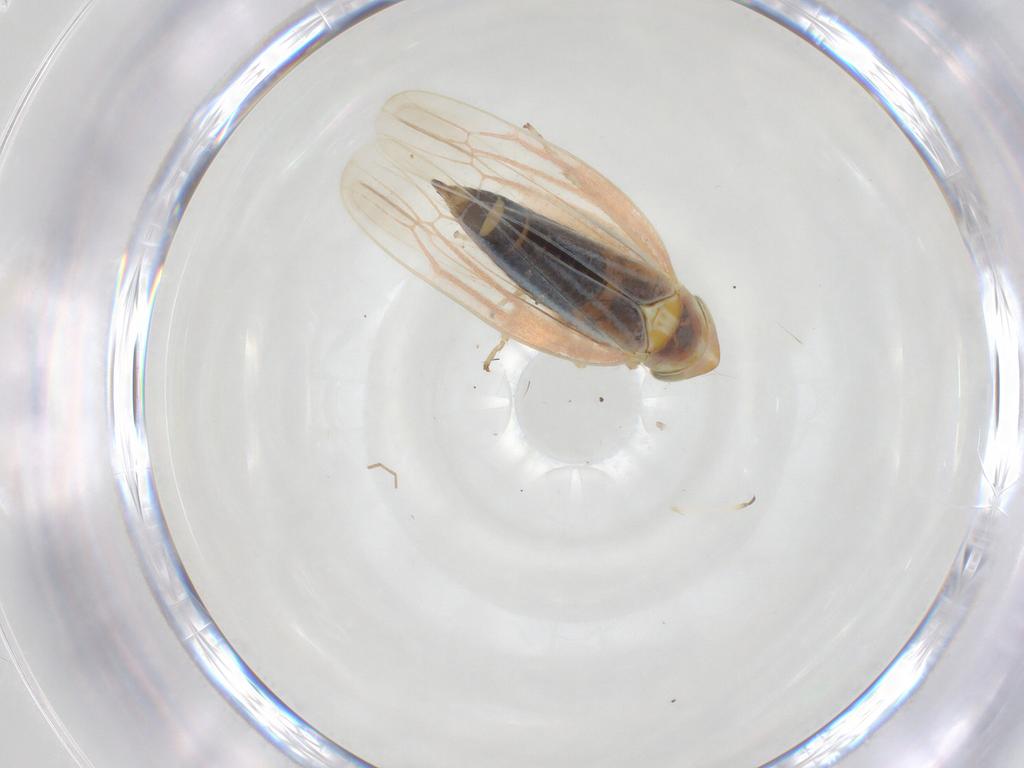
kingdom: Animalia
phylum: Arthropoda
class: Insecta
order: Hemiptera
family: Cicadellidae
